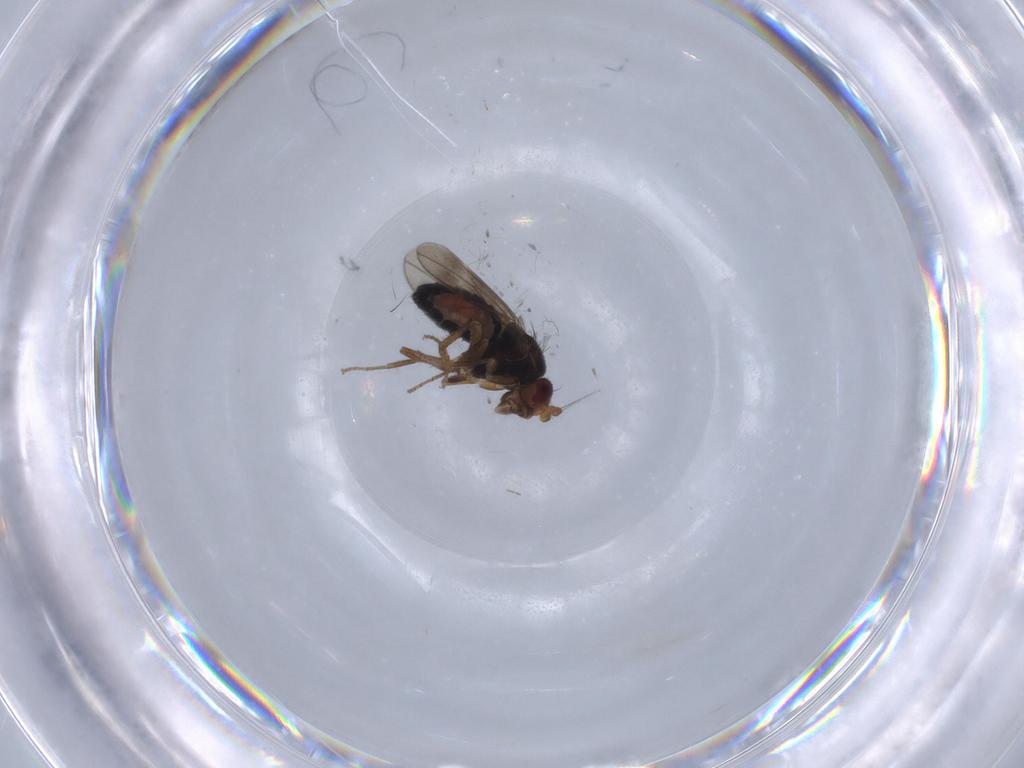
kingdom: Animalia
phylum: Arthropoda
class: Insecta
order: Diptera
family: Sphaeroceridae
